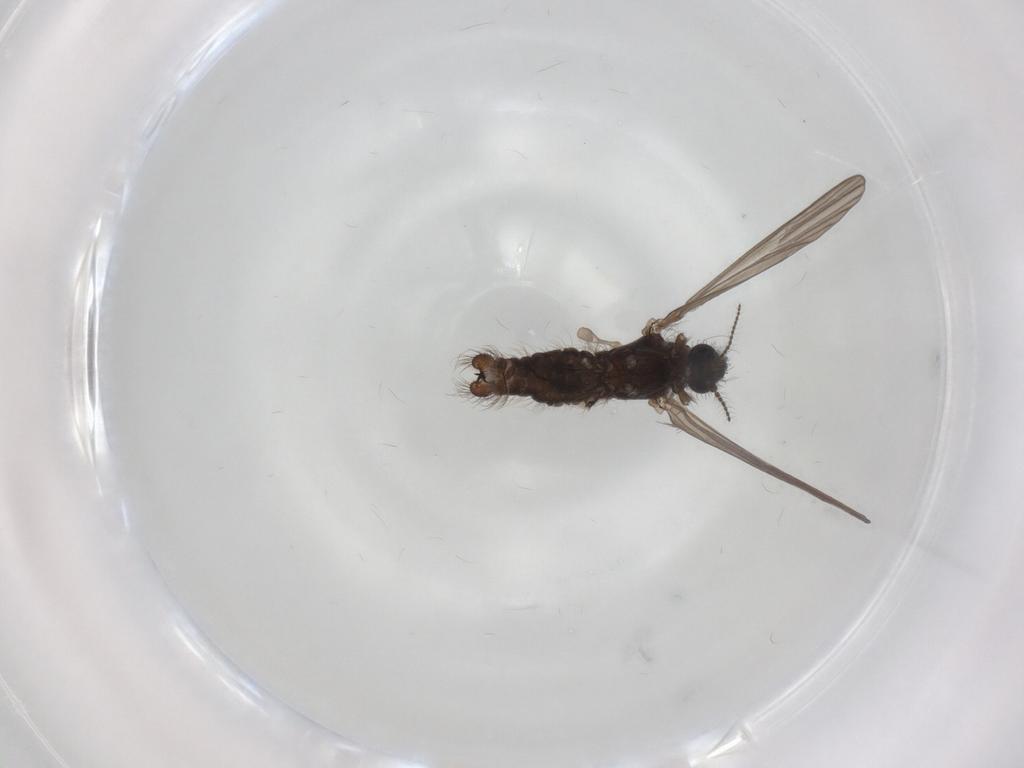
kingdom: Animalia
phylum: Arthropoda
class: Insecta
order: Diptera
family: Limoniidae
